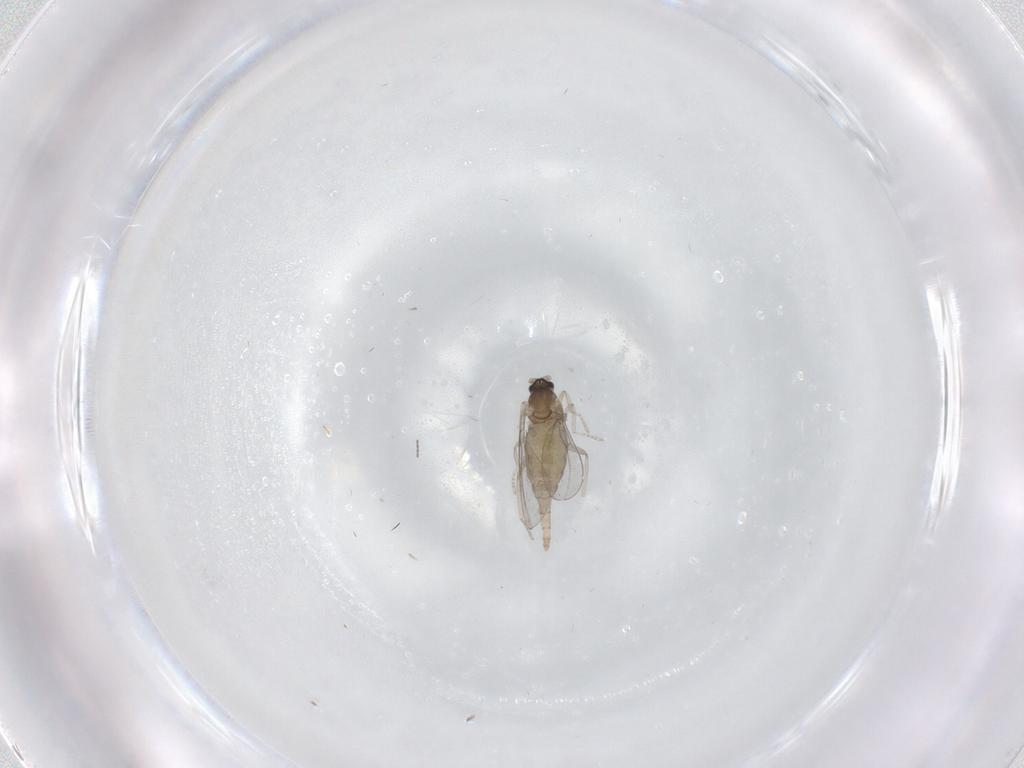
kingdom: Animalia
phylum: Arthropoda
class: Insecta
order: Diptera
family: Cecidomyiidae
